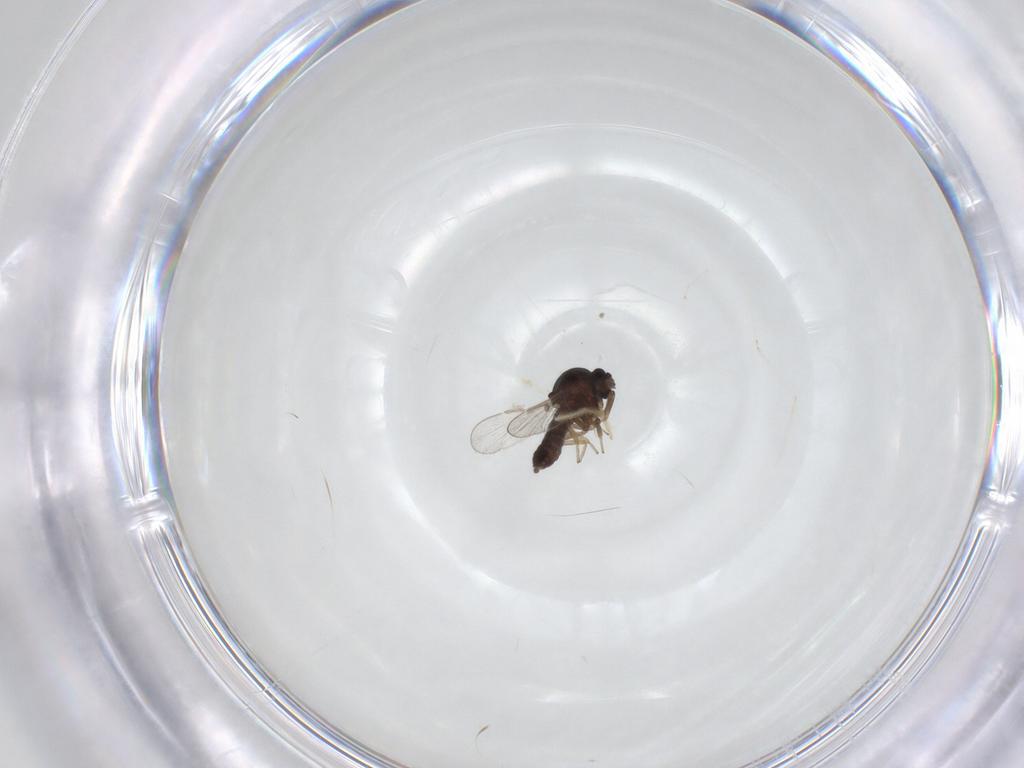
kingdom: Animalia
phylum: Arthropoda
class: Insecta
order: Diptera
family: Ceratopogonidae
